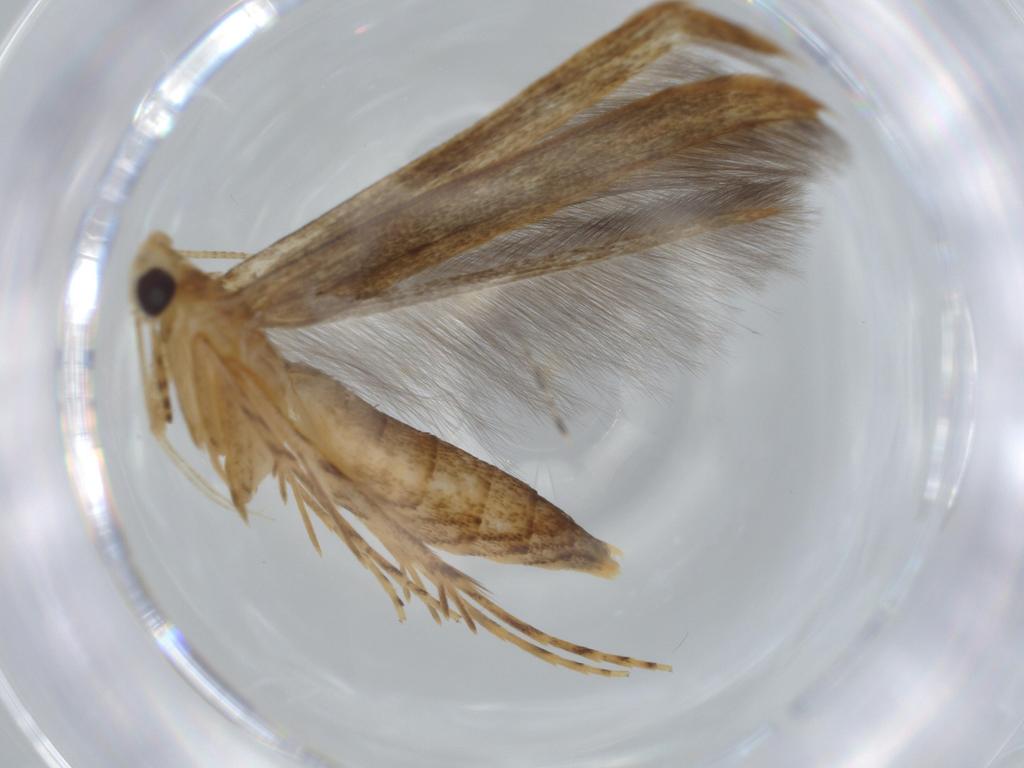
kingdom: Animalia
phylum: Arthropoda
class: Insecta
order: Lepidoptera
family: Batrachedridae
